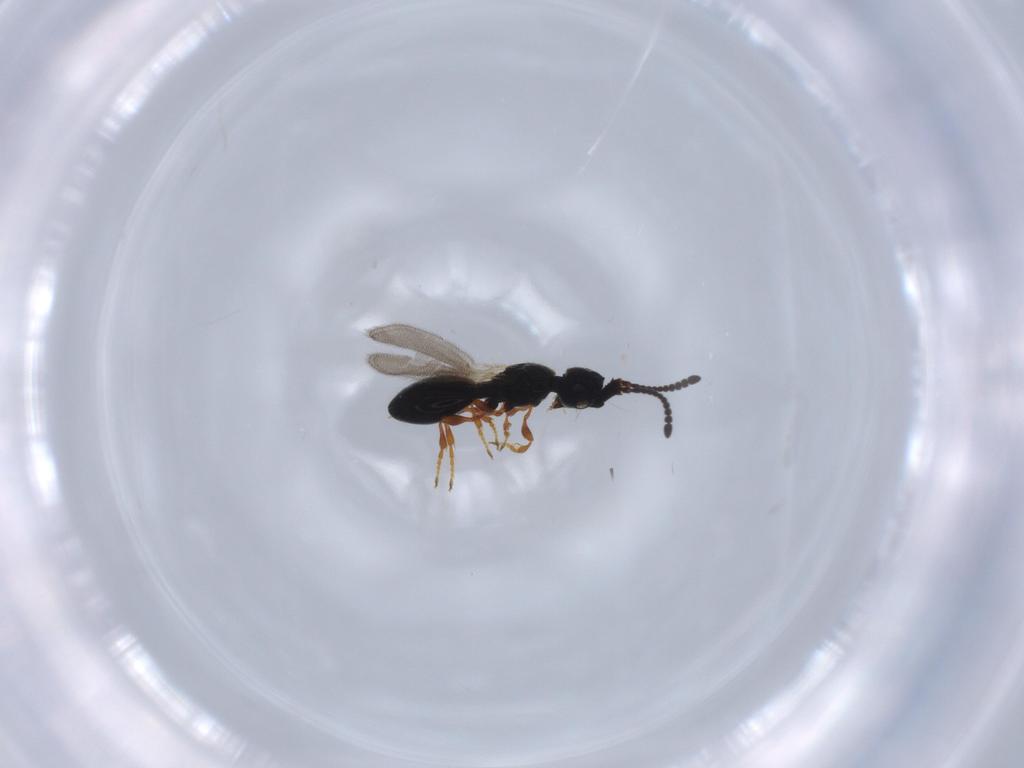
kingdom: Animalia
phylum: Arthropoda
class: Insecta
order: Hymenoptera
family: Diapriidae
